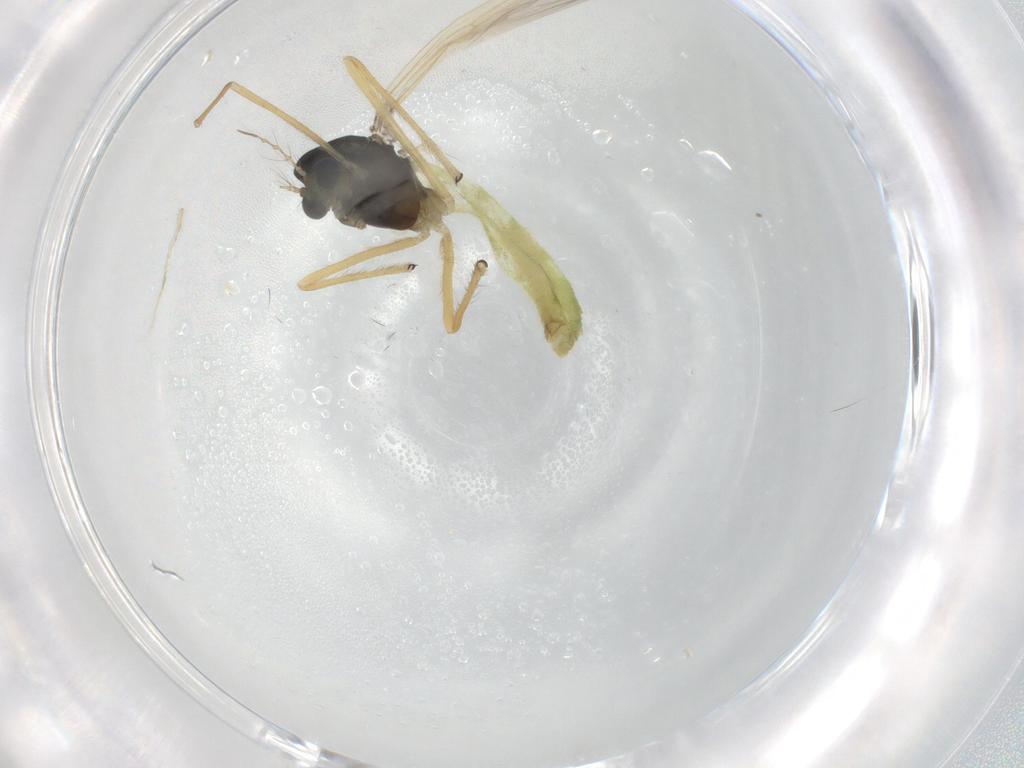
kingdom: Animalia
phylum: Arthropoda
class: Insecta
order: Diptera
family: Chironomidae
